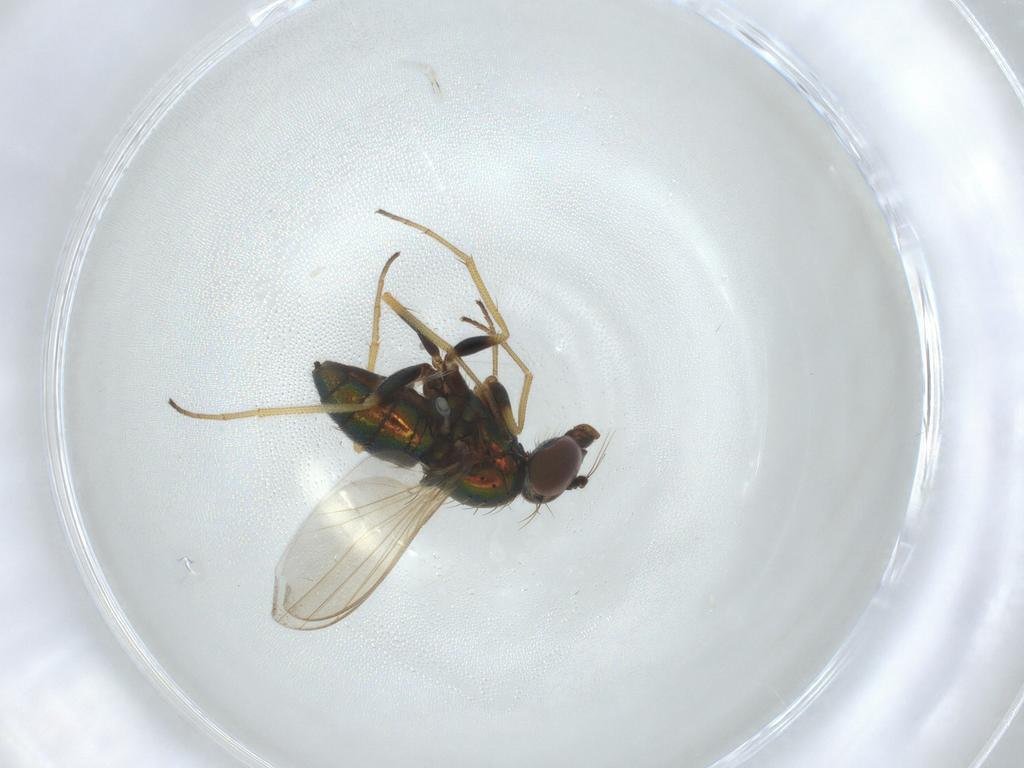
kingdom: Animalia
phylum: Arthropoda
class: Insecta
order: Diptera
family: Dolichopodidae
